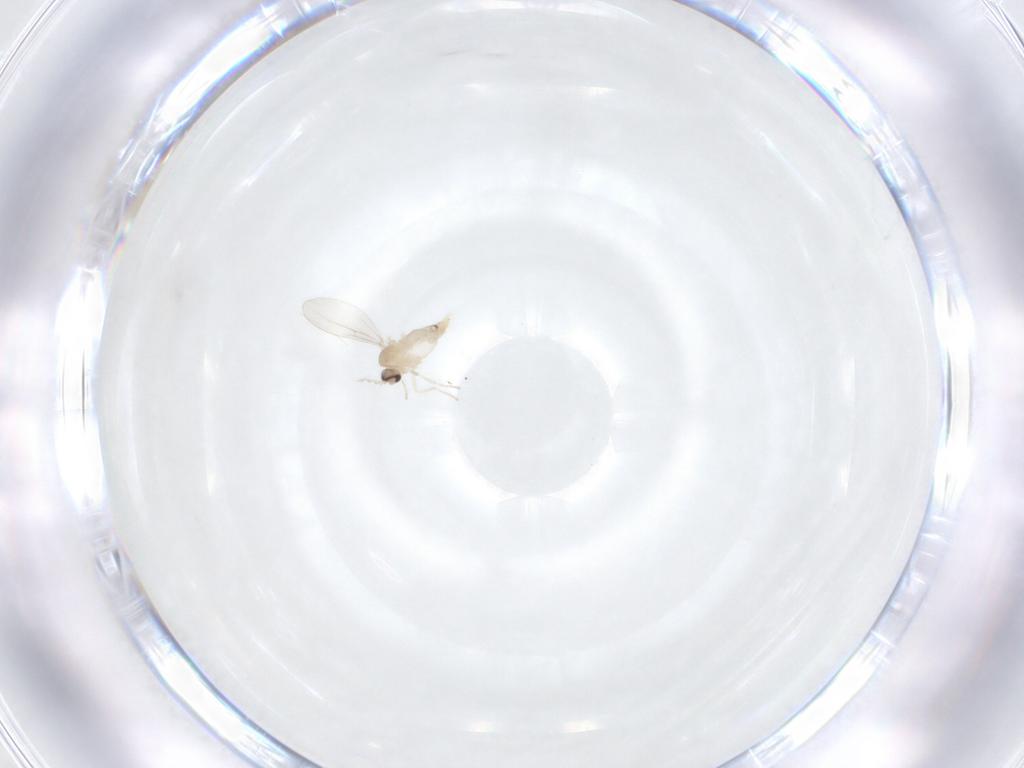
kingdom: Animalia
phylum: Arthropoda
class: Insecta
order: Diptera
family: Cecidomyiidae
